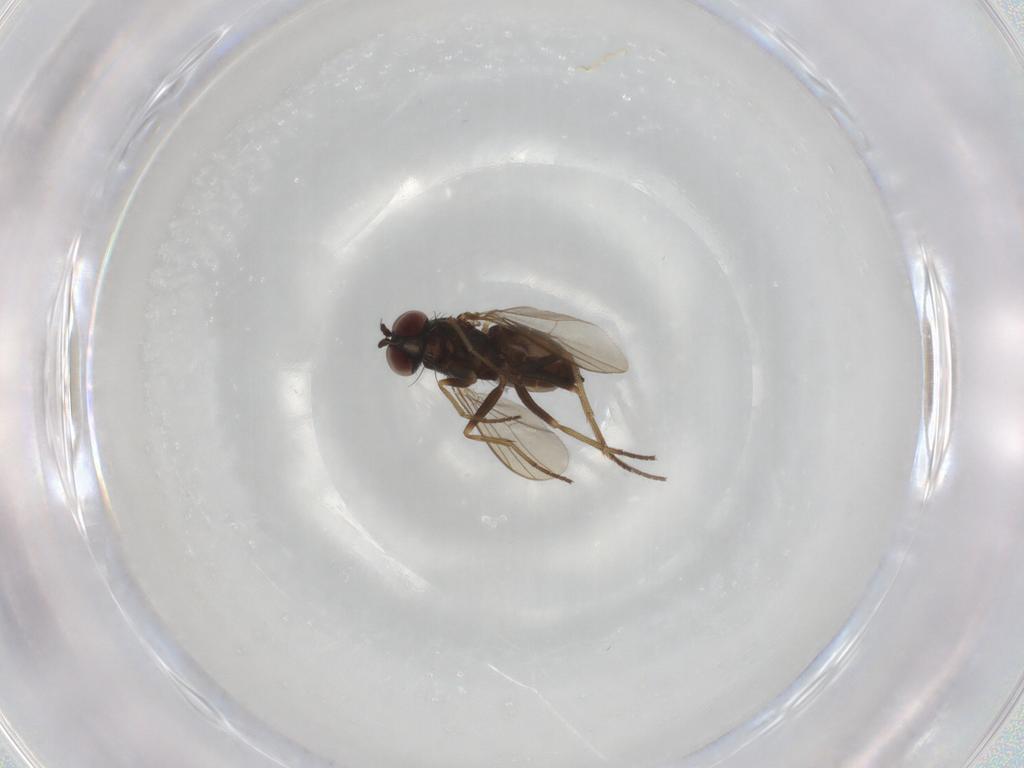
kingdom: Animalia
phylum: Arthropoda
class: Insecta
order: Diptera
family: Dolichopodidae
